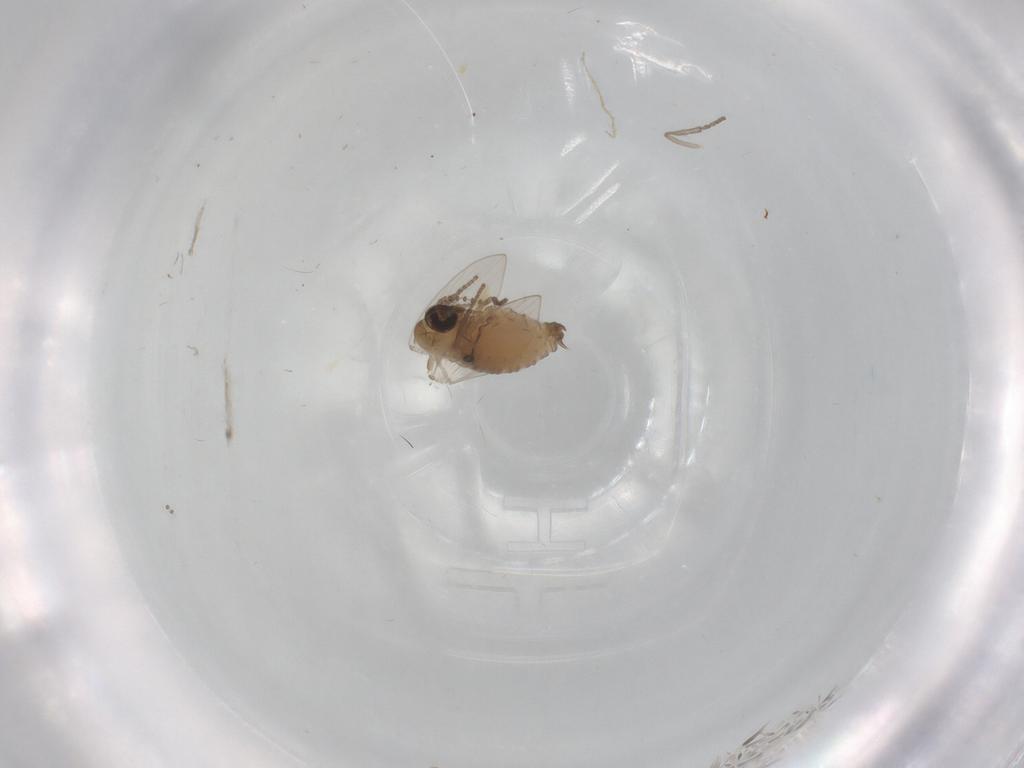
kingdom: Animalia
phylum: Arthropoda
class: Insecta
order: Diptera
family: Psychodidae
